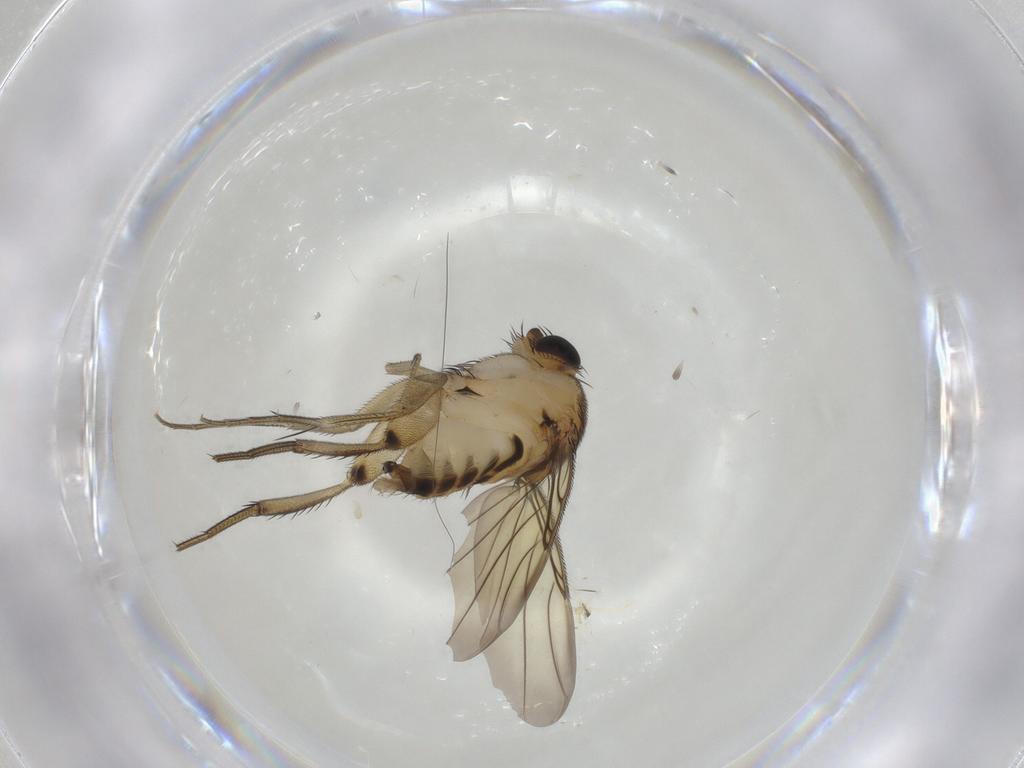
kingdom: Animalia
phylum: Arthropoda
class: Insecta
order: Diptera
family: Phoridae
